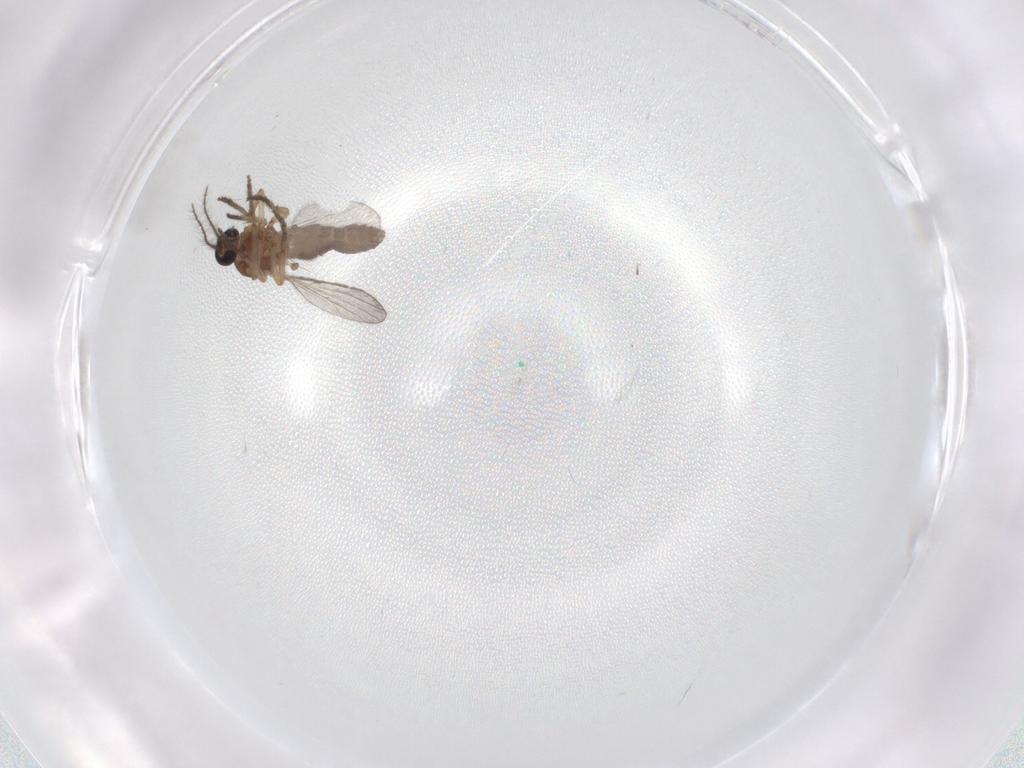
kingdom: Animalia
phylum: Arthropoda
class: Insecta
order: Diptera
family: Ceratopogonidae
